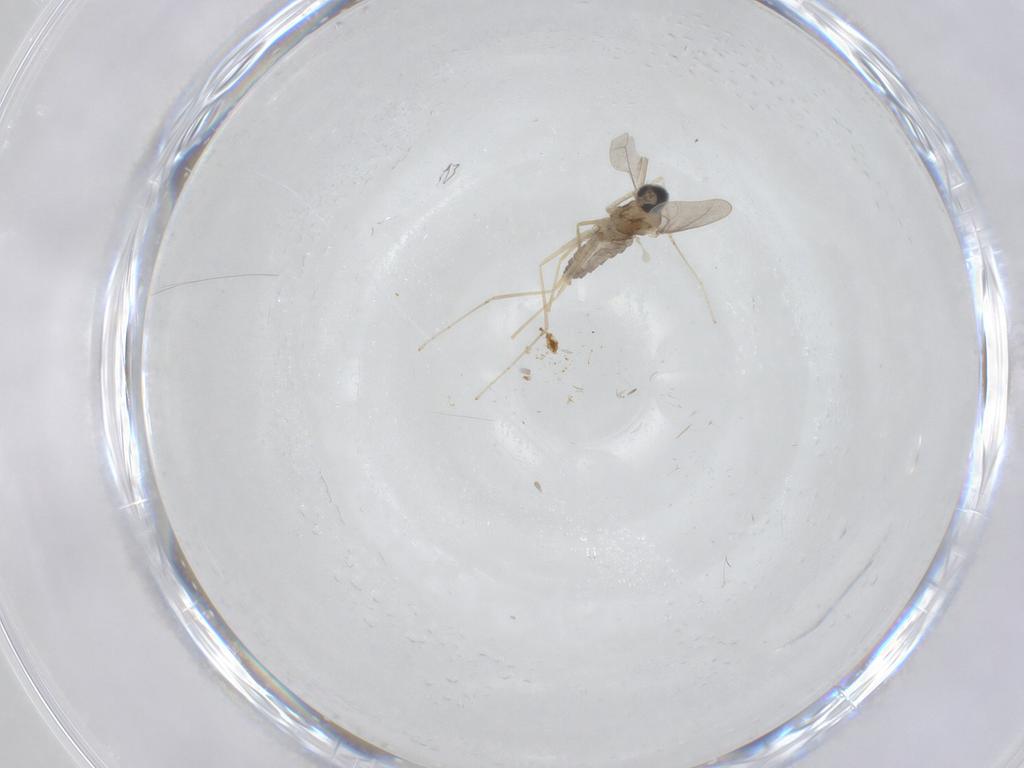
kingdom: Animalia
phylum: Arthropoda
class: Insecta
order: Diptera
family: Cecidomyiidae
